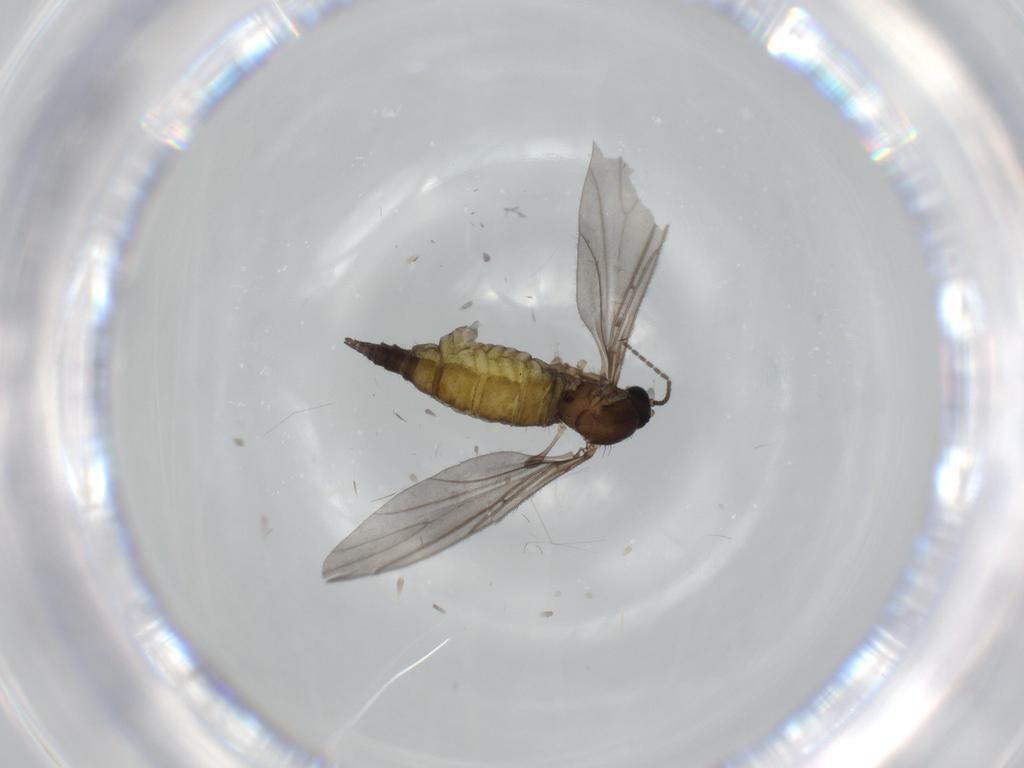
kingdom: Animalia
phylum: Arthropoda
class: Insecta
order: Diptera
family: Sciaridae
